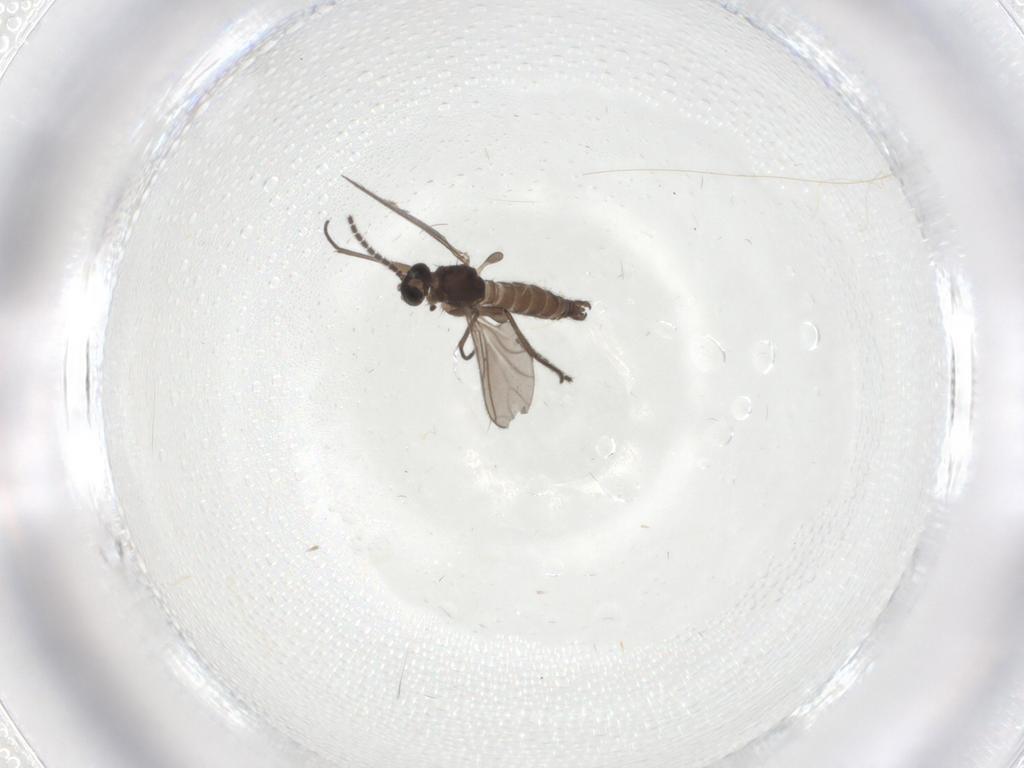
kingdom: Animalia
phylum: Arthropoda
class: Insecta
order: Diptera
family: Sciaridae
